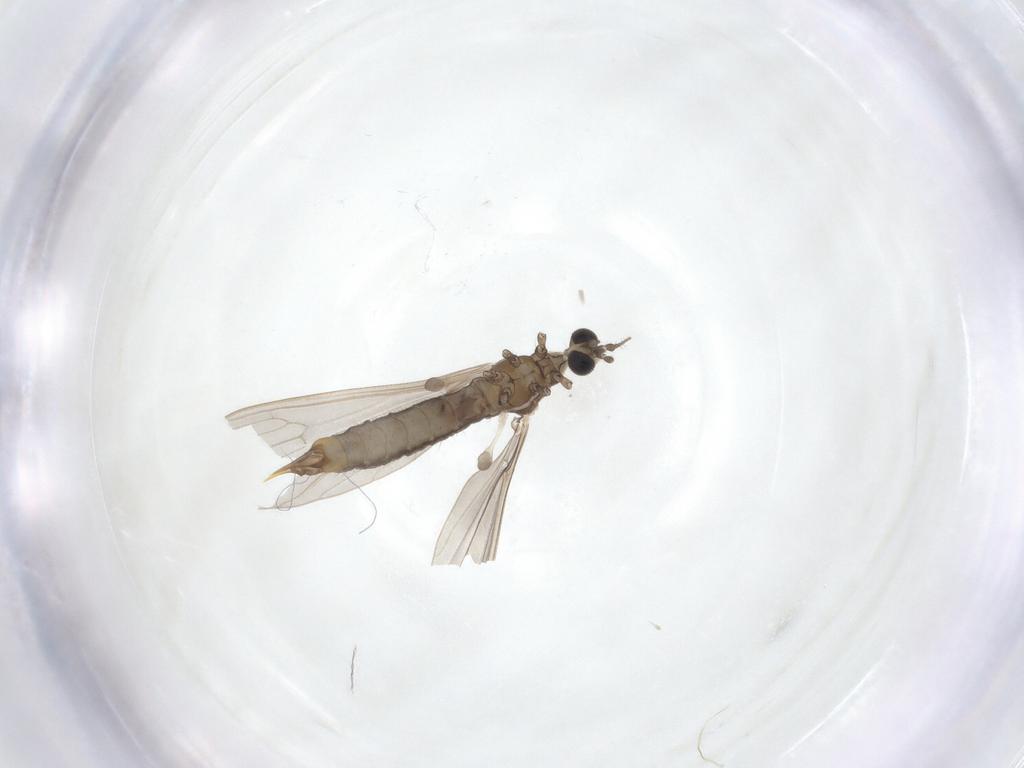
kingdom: Animalia
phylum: Arthropoda
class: Insecta
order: Diptera
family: Limoniidae
